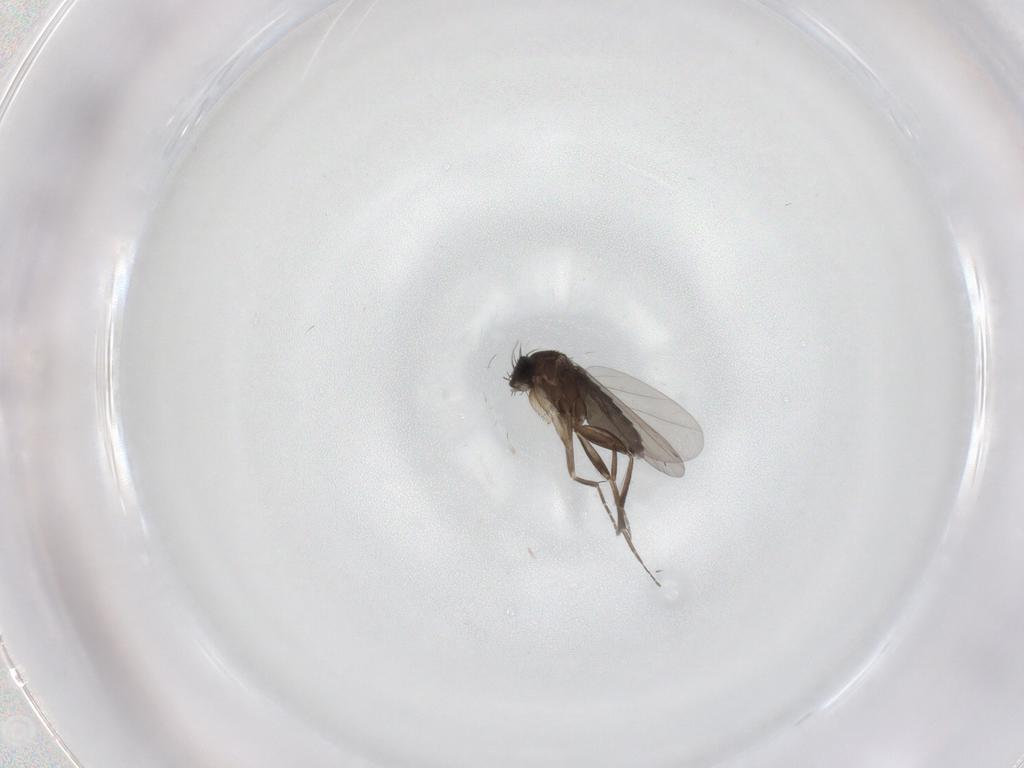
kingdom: Animalia
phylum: Arthropoda
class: Insecta
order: Diptera
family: Phoridae
